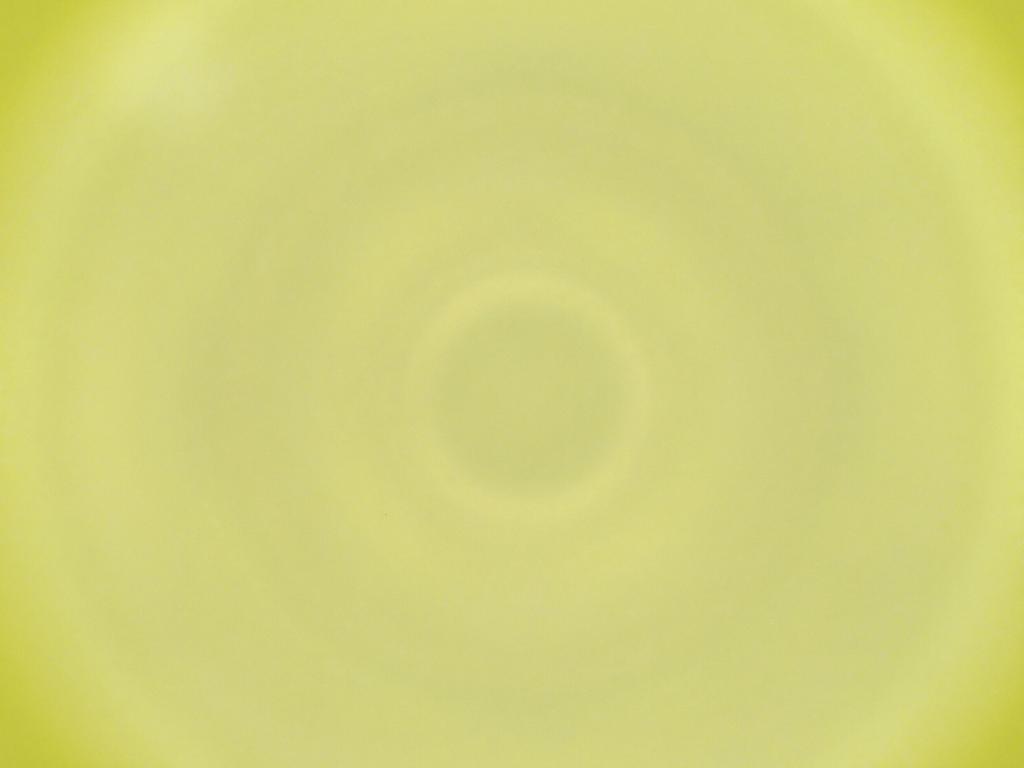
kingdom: Animalia
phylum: Arthropoda
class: Insecta
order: Diptera
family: Cecidomyiidae
